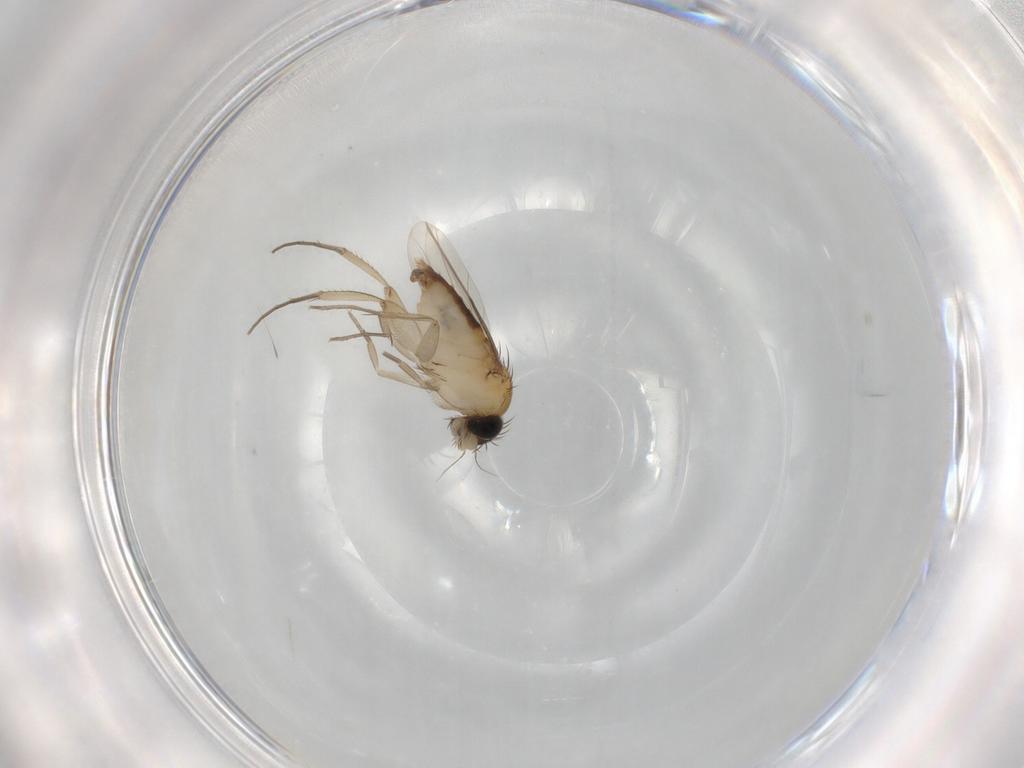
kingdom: Animalia
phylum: Arthropoda
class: Insecta
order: Diptera
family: Phoridae
